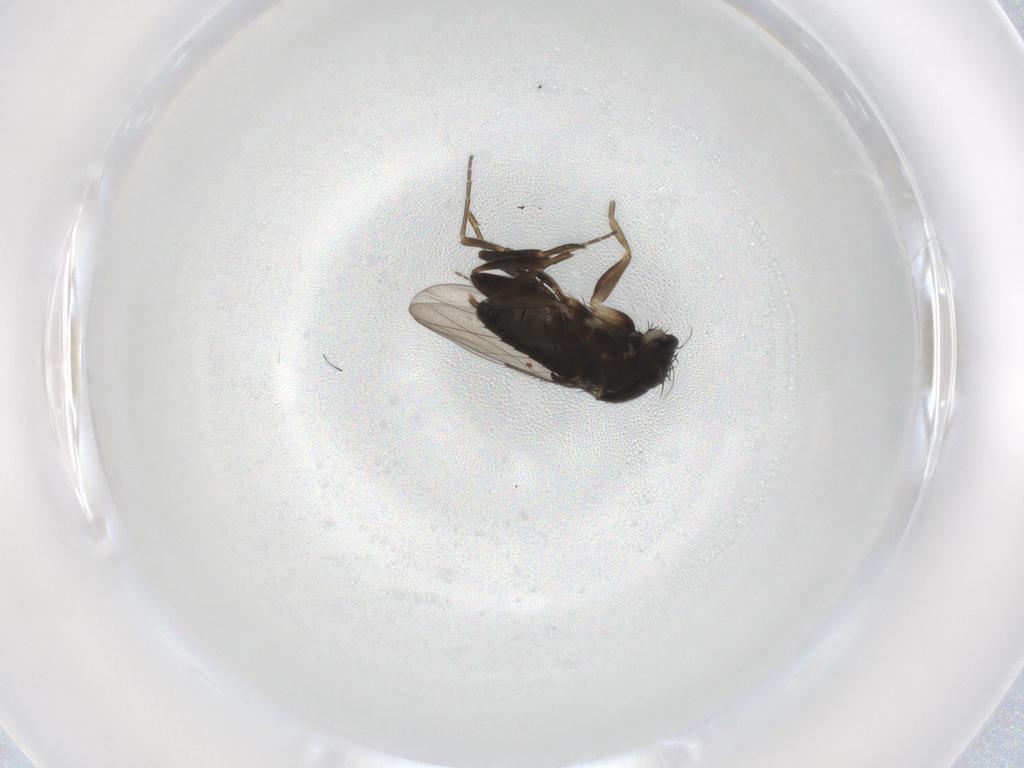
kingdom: Animalia
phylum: Arthropoda
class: Insecta
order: Diptera
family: Phoridae
